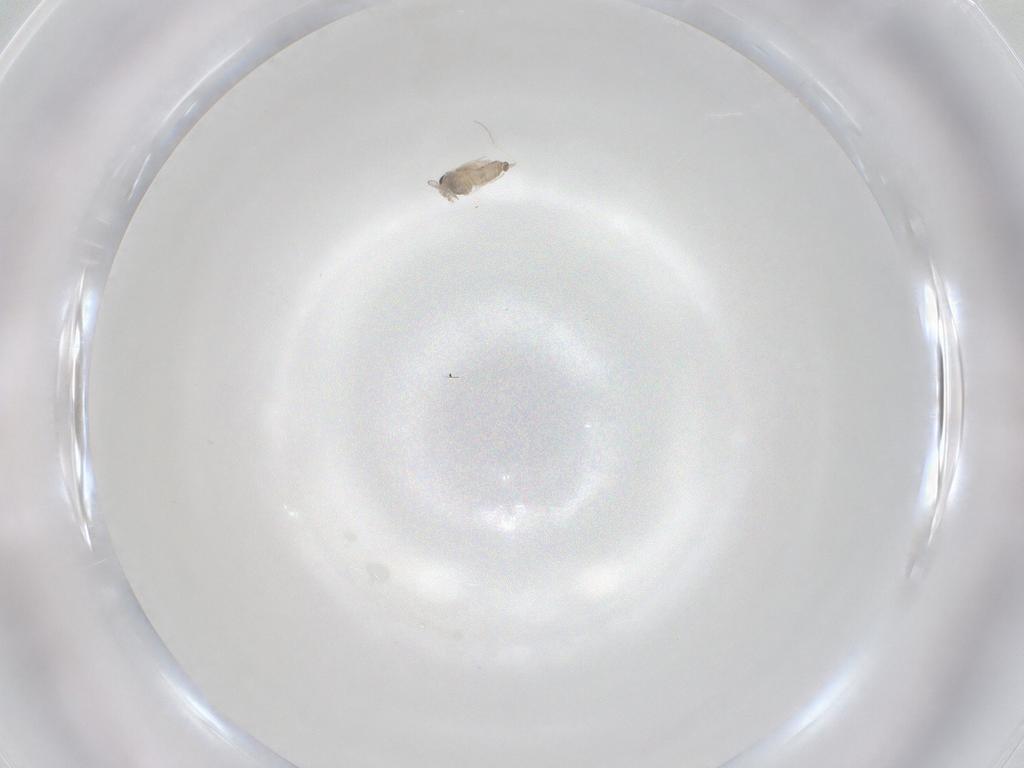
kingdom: Animalia
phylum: Arthropoda
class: Insecta
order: Diptera
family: Cecidomyiidae
